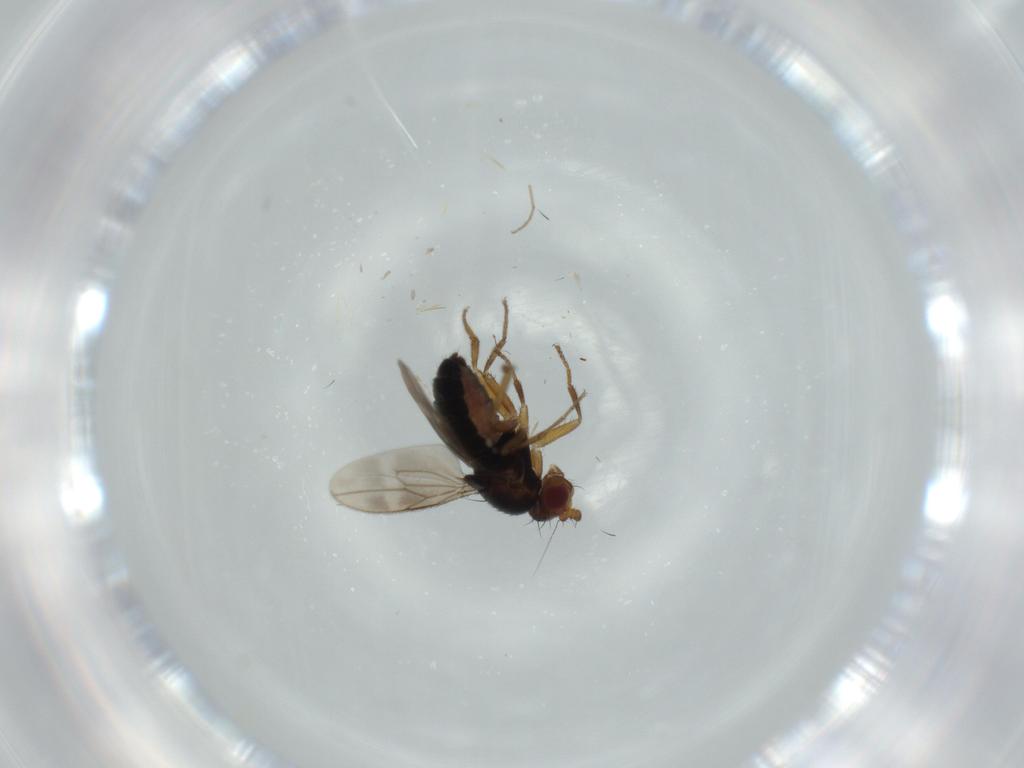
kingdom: Animalia
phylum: Arthropoda
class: Insecta
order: Diptera
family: Sphaeroceridae
